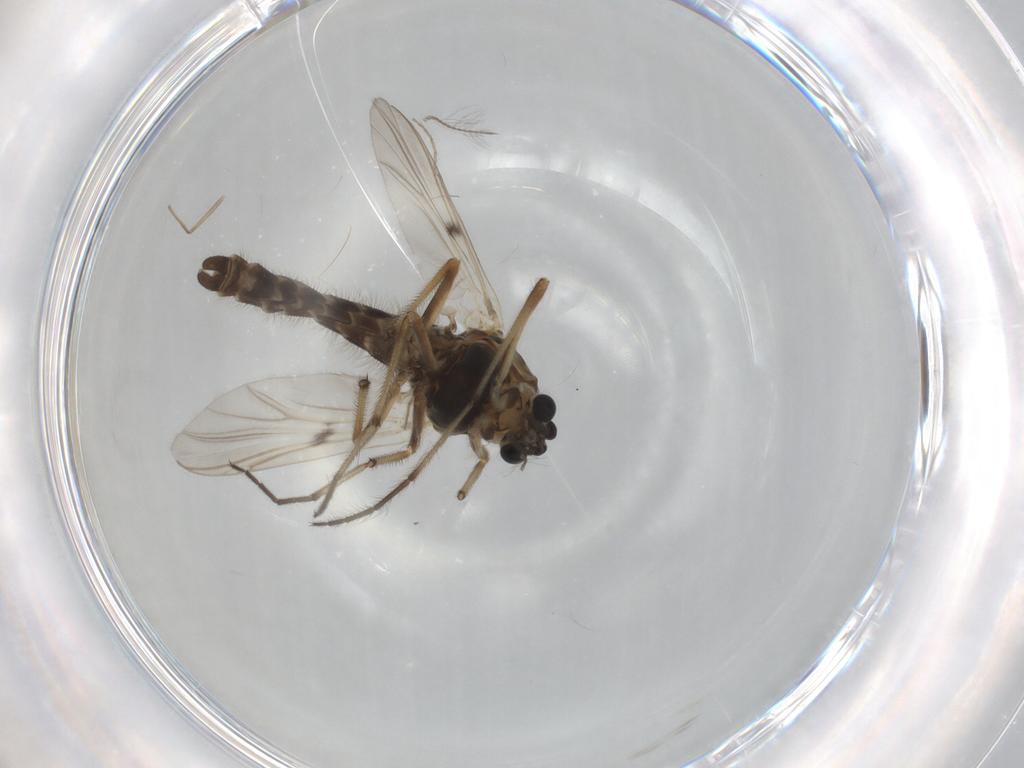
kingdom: Animalia
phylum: Arthropoda
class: Insecta
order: Diptera
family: Chironomidae
